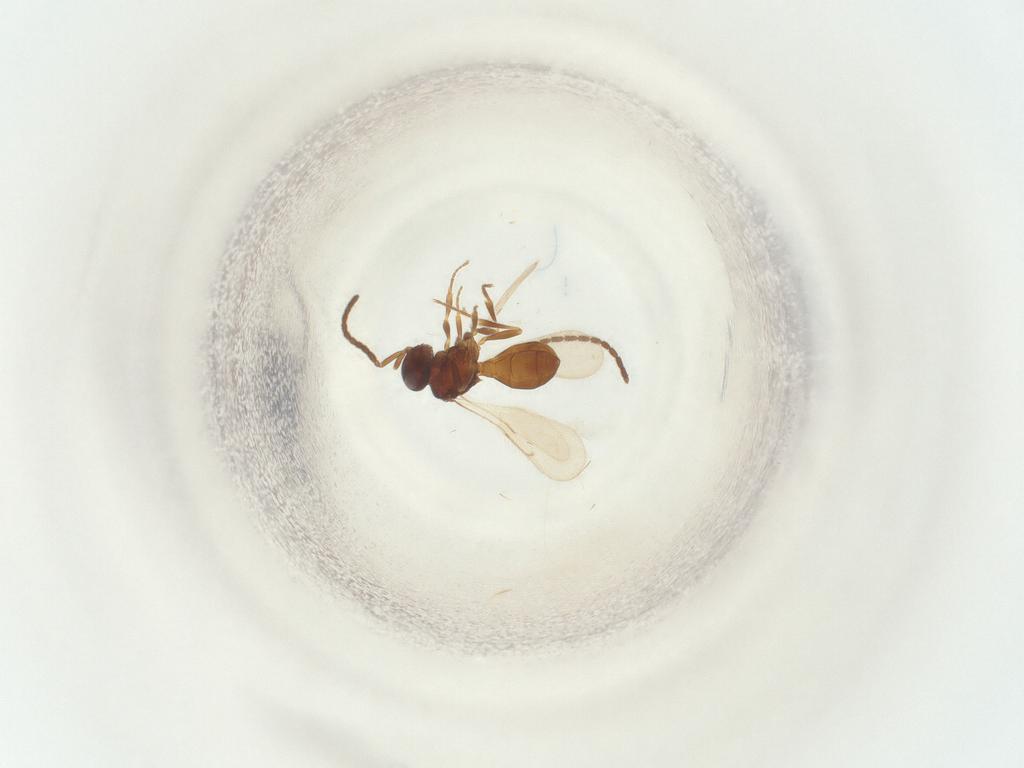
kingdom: Animalia
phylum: Arthropoda
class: Insecta
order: Hymenoptera
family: Scelionidae
